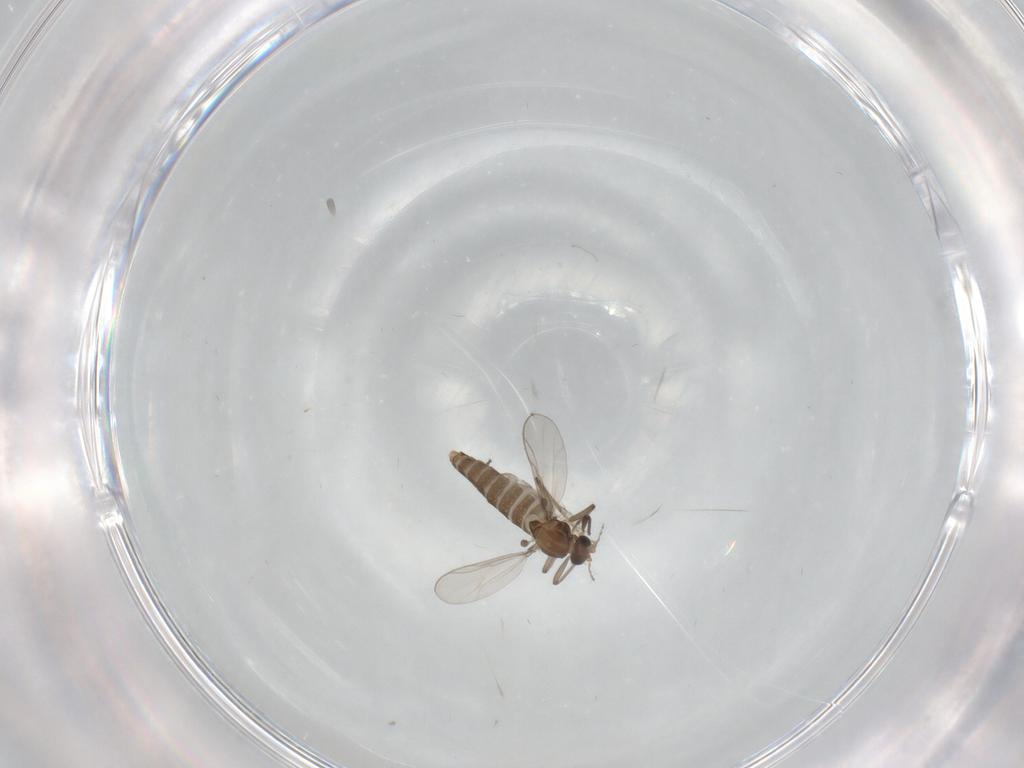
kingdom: Animalia
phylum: Arthropoda
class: Insecta
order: Diptera
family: Chironomidae
